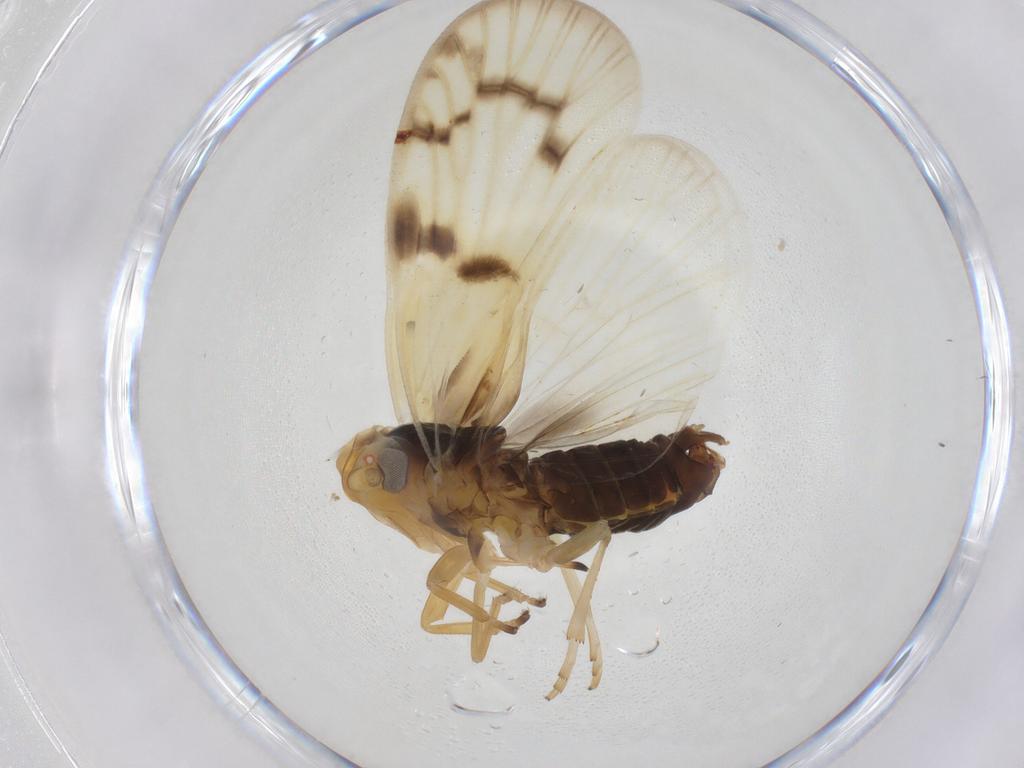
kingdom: Animalia
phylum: Arthropoda
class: Insecta
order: Hemiptera
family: Cixiidae
